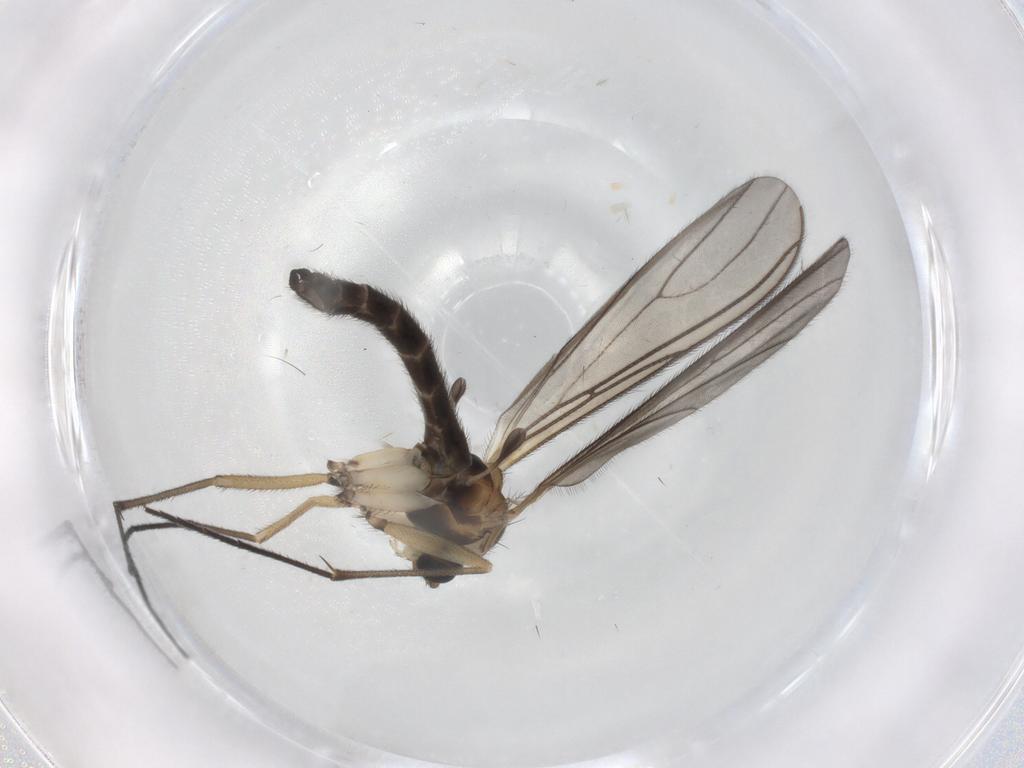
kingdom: Animalia
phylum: Arthropoda
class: Insecta
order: Diptera
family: Sciaridae
